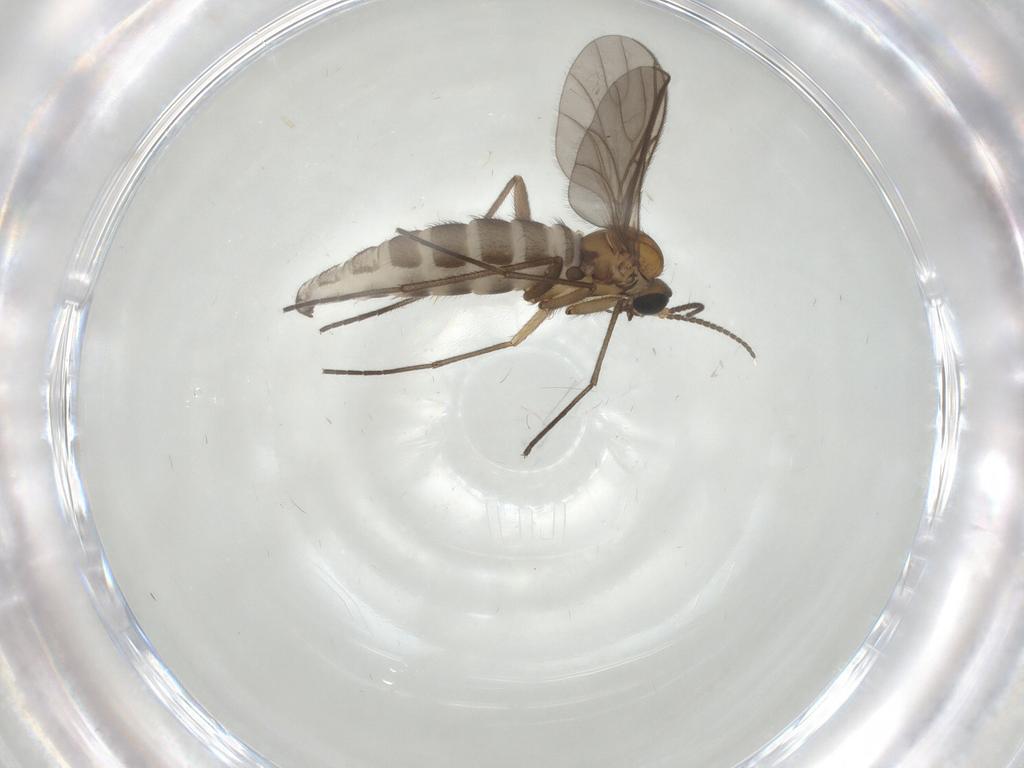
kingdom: Animalia
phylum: Arthropoda
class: Insecta
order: Diptera
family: Sciaridae
